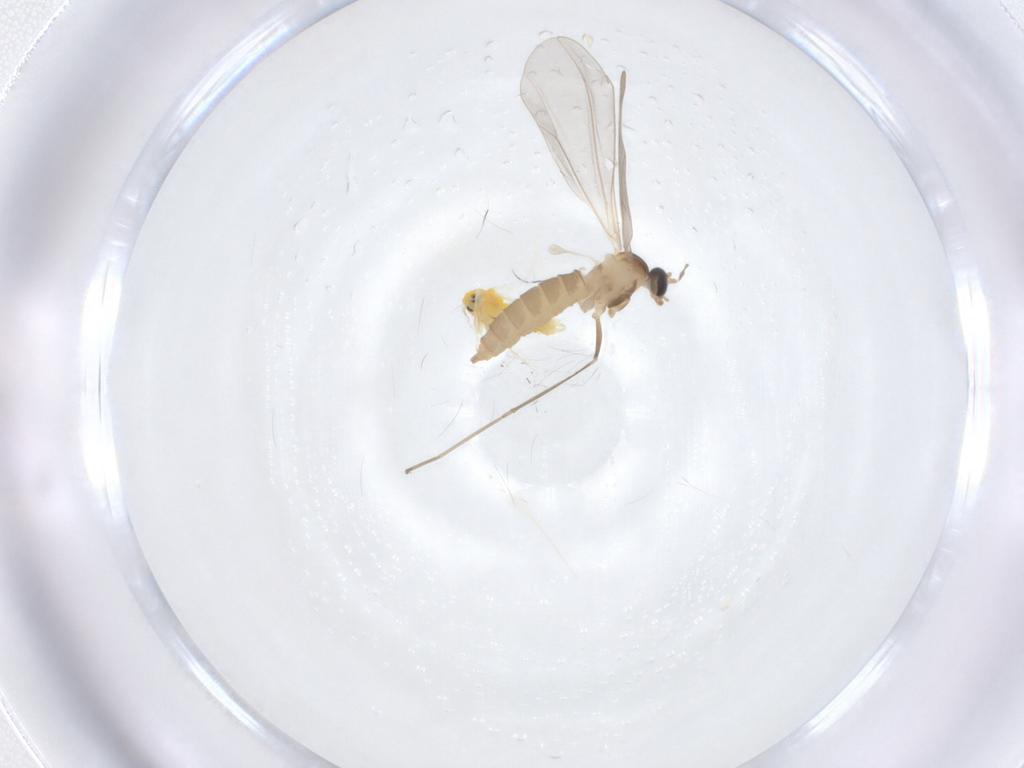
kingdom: Animalia
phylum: Arthropoda
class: Insecta
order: Hemiptera
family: Aleyrodidae
